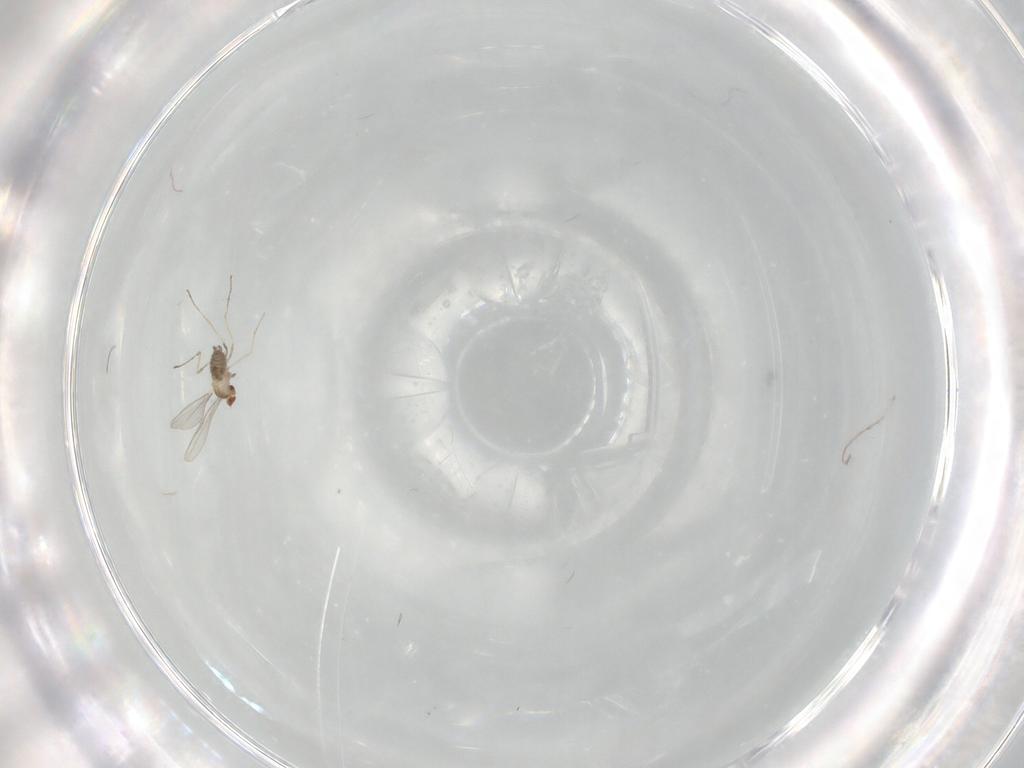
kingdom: Animalia
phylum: Arthropoda
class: Insecta
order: Diptera
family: Cecidomyiidae
